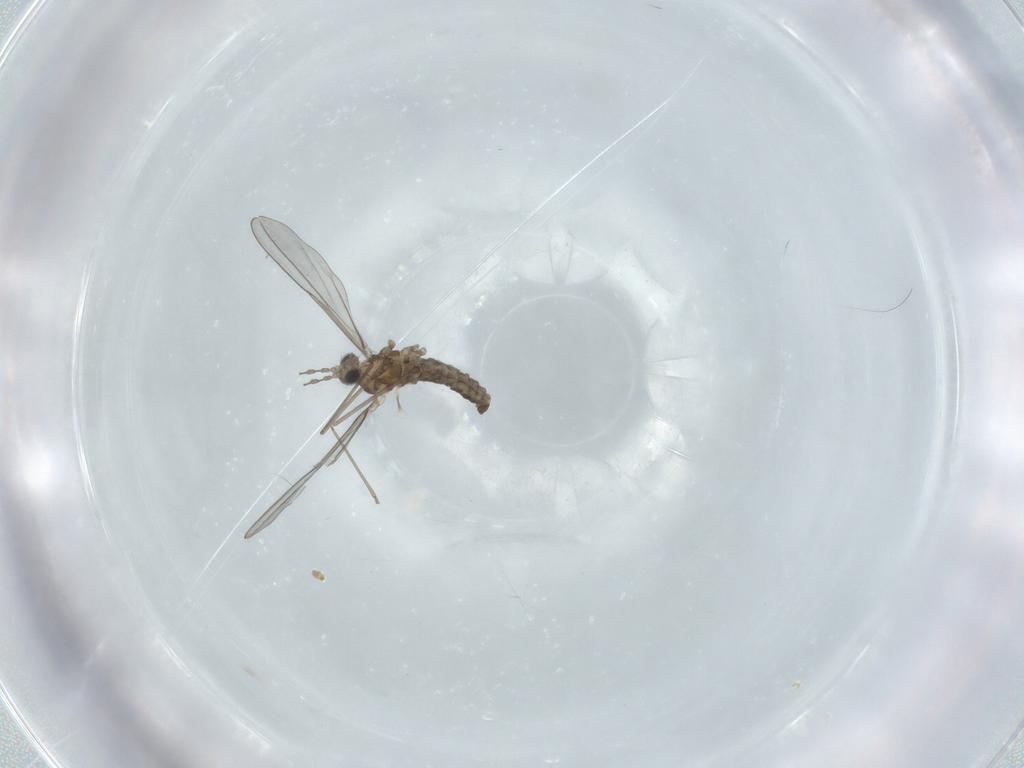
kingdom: Animalia
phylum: Arthropoda
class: Insecta
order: Diptera
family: Cecidomyiidae
